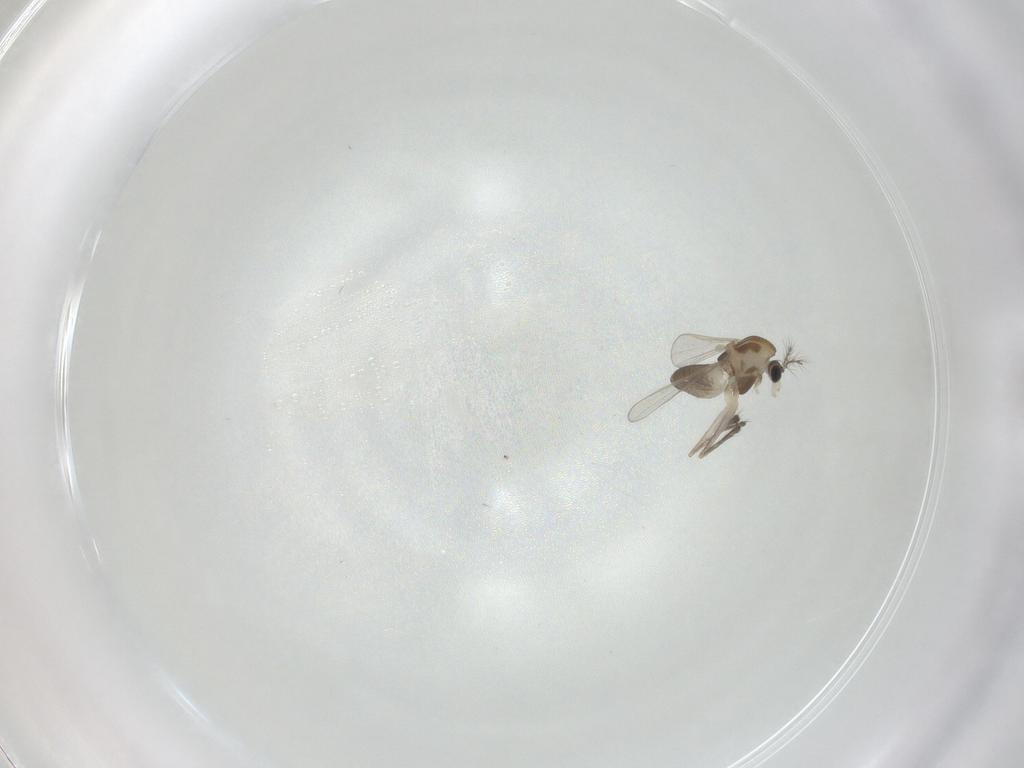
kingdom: Animalia
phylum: Arthropoda
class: Insecta
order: Diptera
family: Chironomidae
